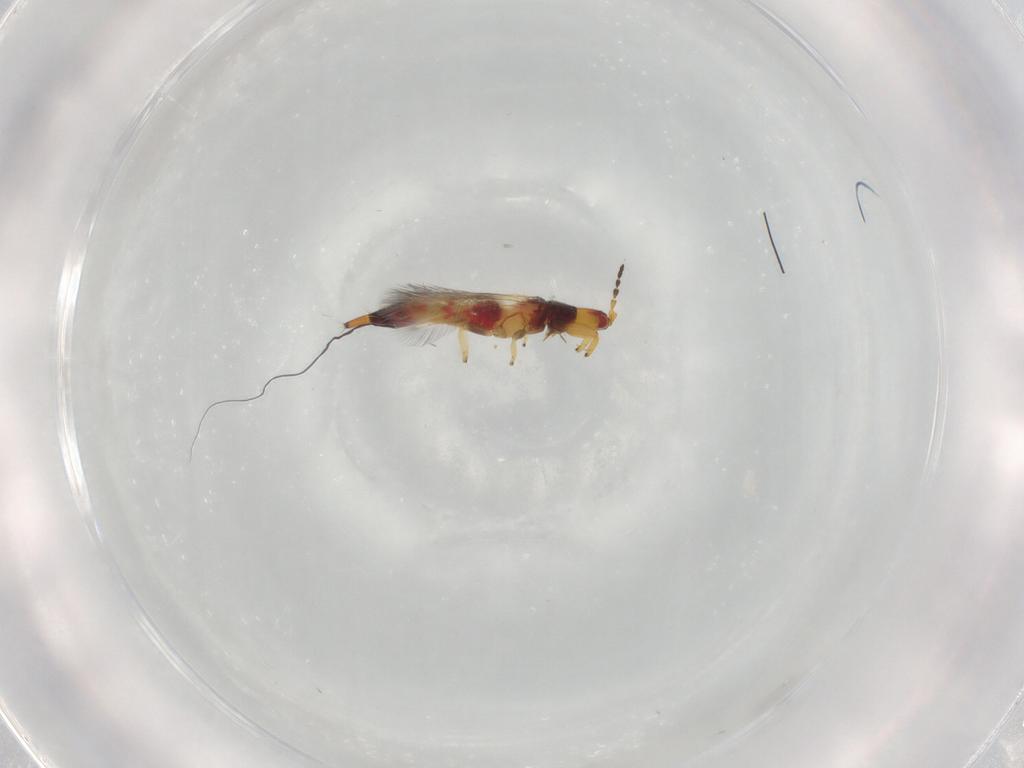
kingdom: Animalia
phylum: Arthropoda
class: Insecta
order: Thysanoptera
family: Phlaeothripidae
